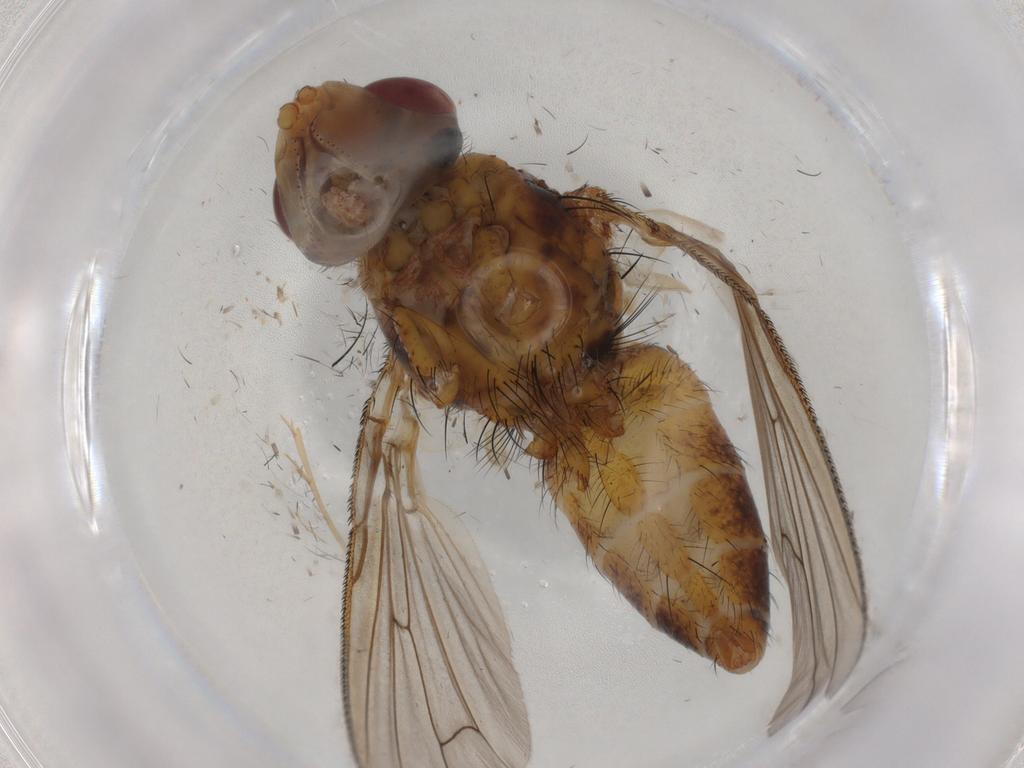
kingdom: Animalia
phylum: Arthropoda
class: Insecta
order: Diptera
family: Tachinidae
